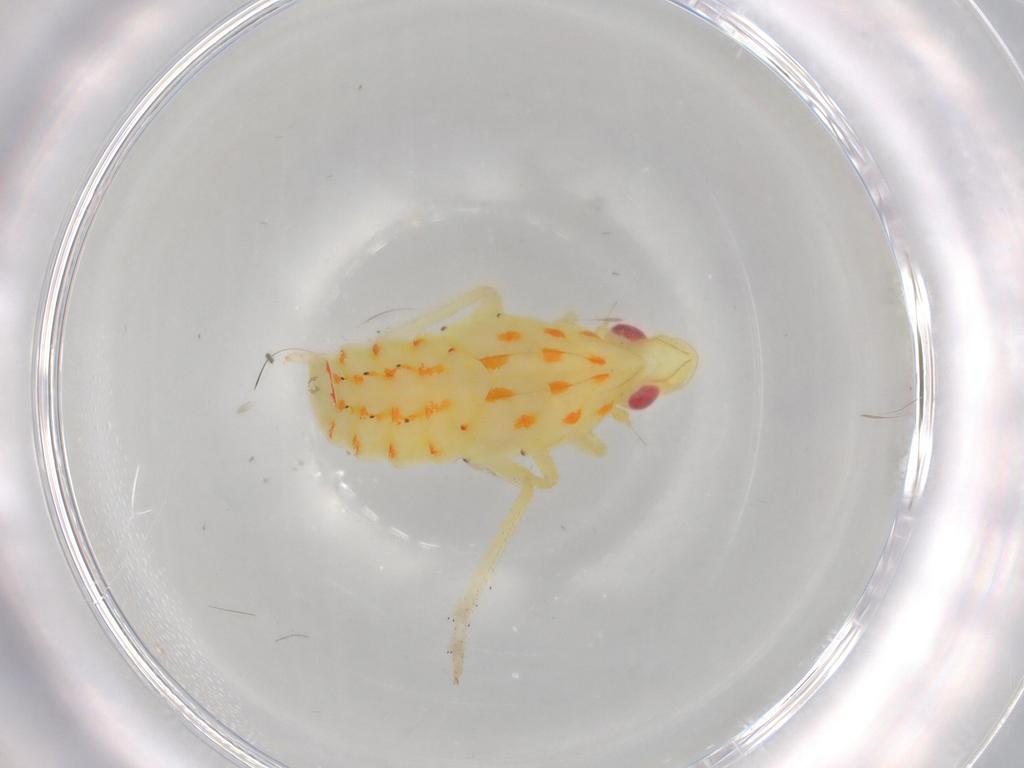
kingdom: Animalia
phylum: Arthropoda
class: Insecta
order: Hemiptera
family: Tropiduchidae
